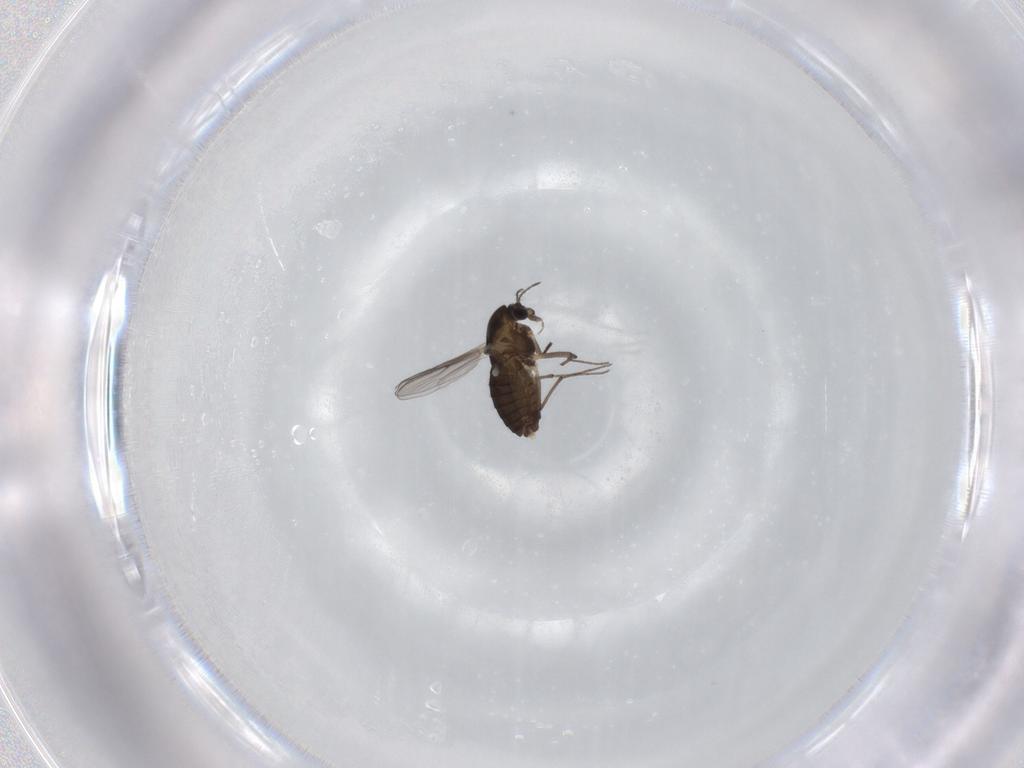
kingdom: Animalia
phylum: Arthropoda
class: Insecta
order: Diptera
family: Chironomidae
